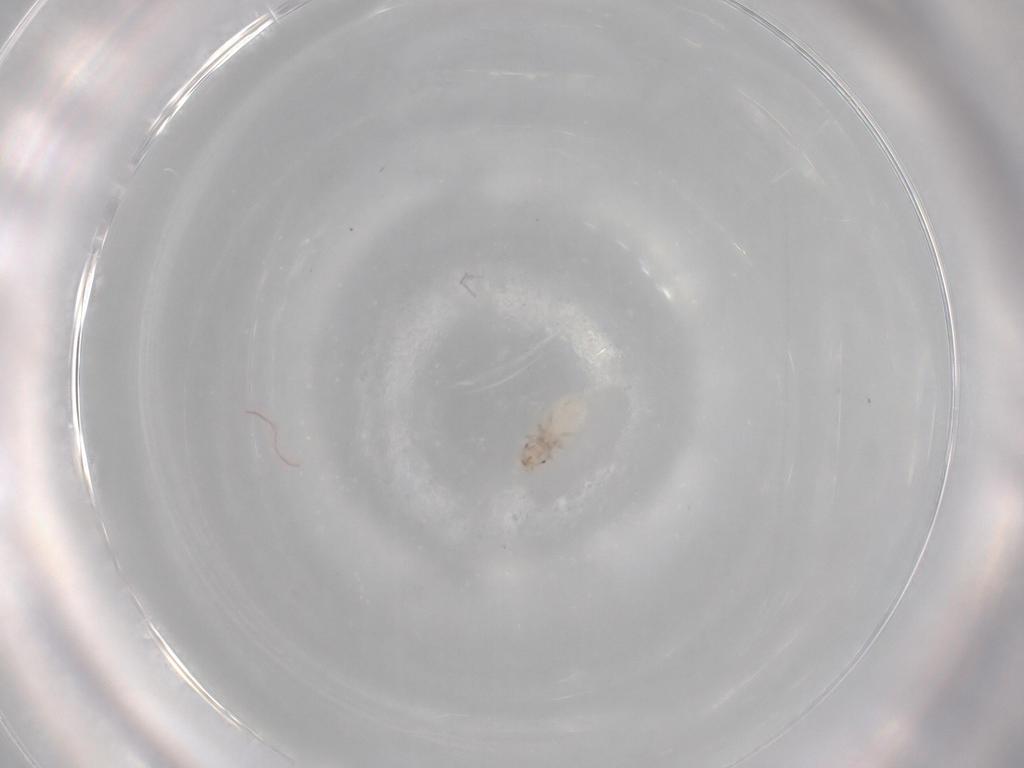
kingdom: Animalia
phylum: Arthropoda
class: Insecta
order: Psocodea
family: Liposcelididae
